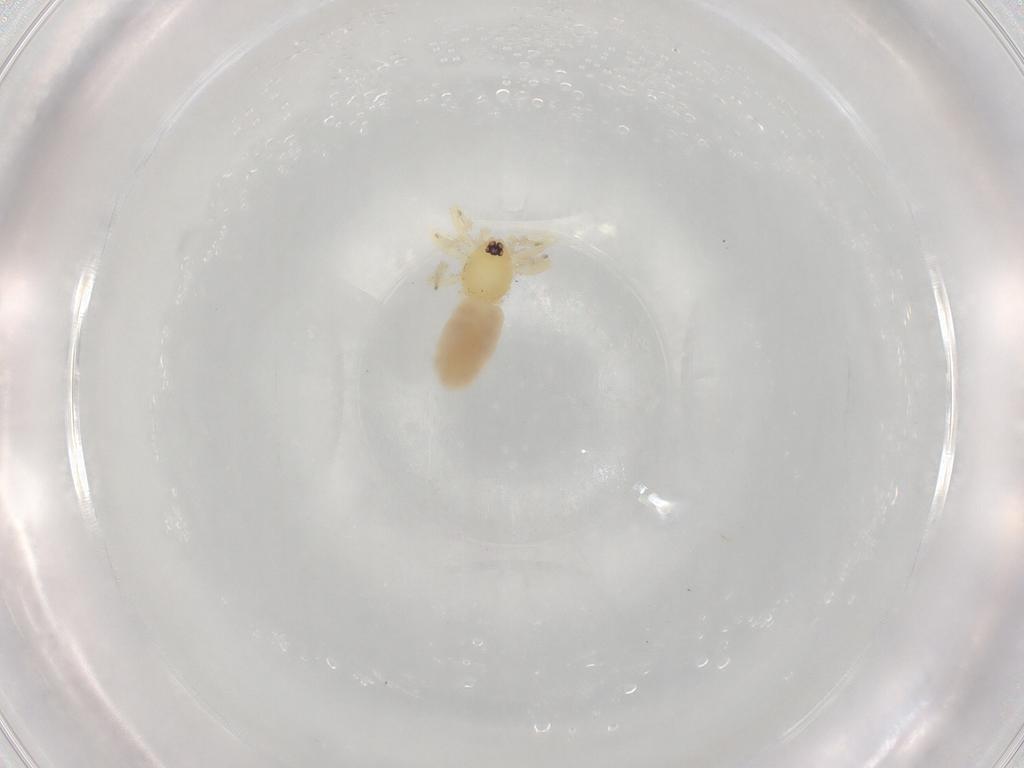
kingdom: Animalia
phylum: Arthropoda
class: Arachnida
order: Araneae
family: Oonopidae
